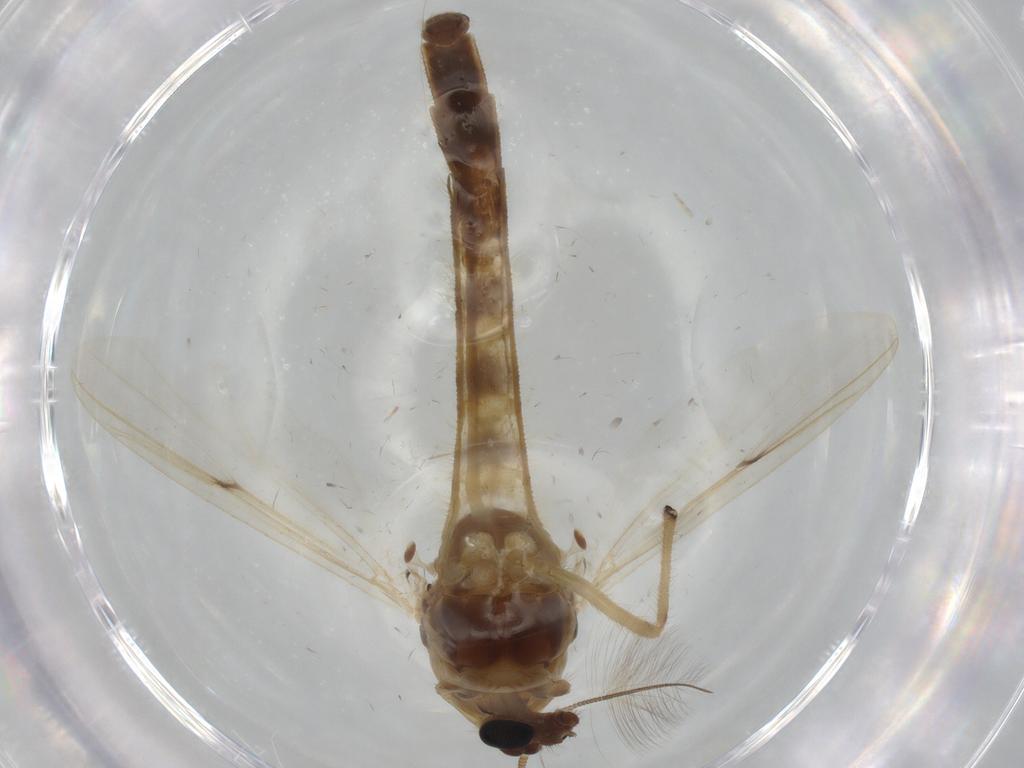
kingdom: Animalia
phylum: Arthropoda
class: Insecta
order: Diptera
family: Chironomidae
